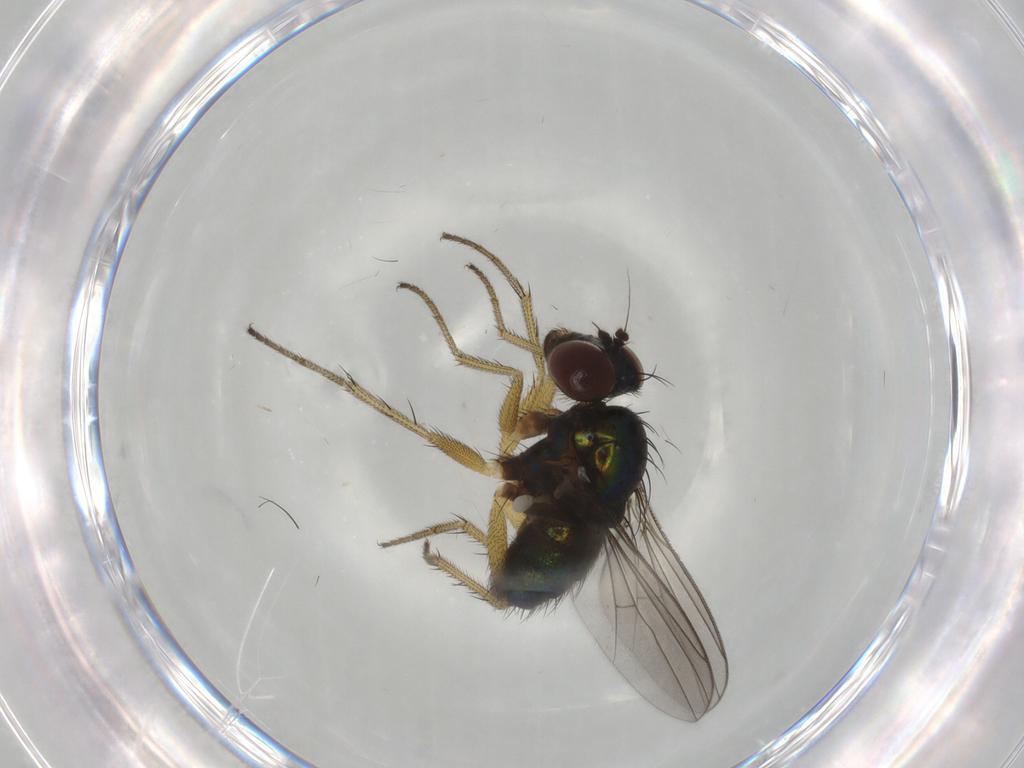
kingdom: Animalia
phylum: Arthropoda
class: Insecta
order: Diptera
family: Dolichopodidae
